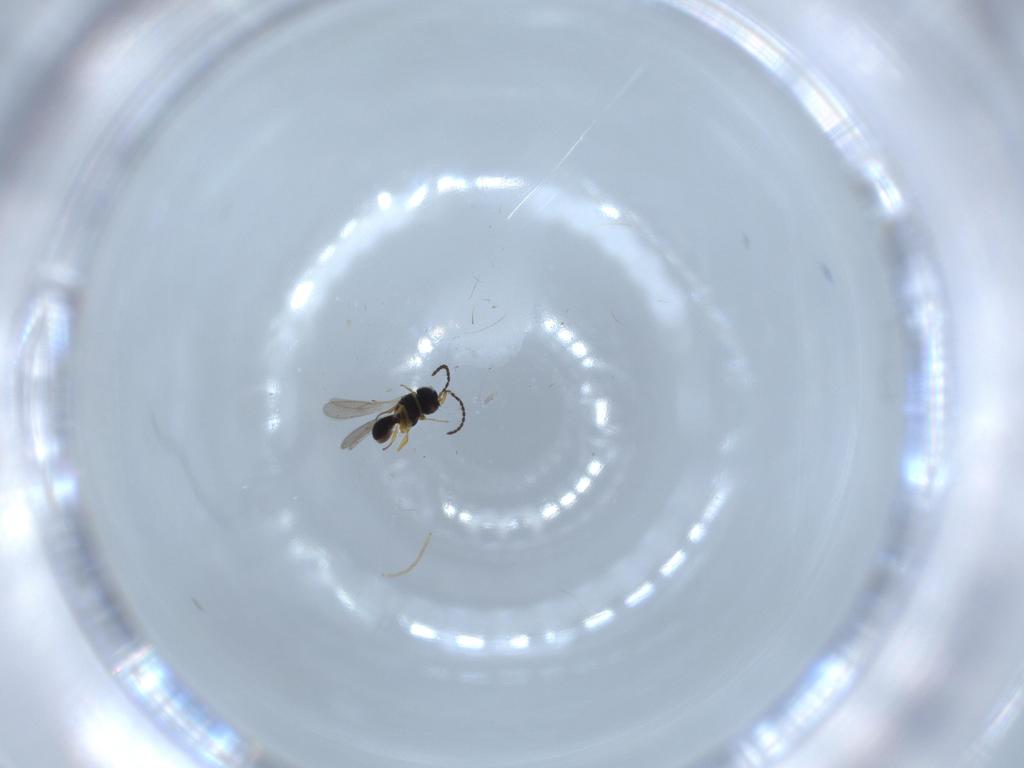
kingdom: Animalia
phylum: Arthropoda
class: Insecta
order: Hymenoptera
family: Scelionidae
